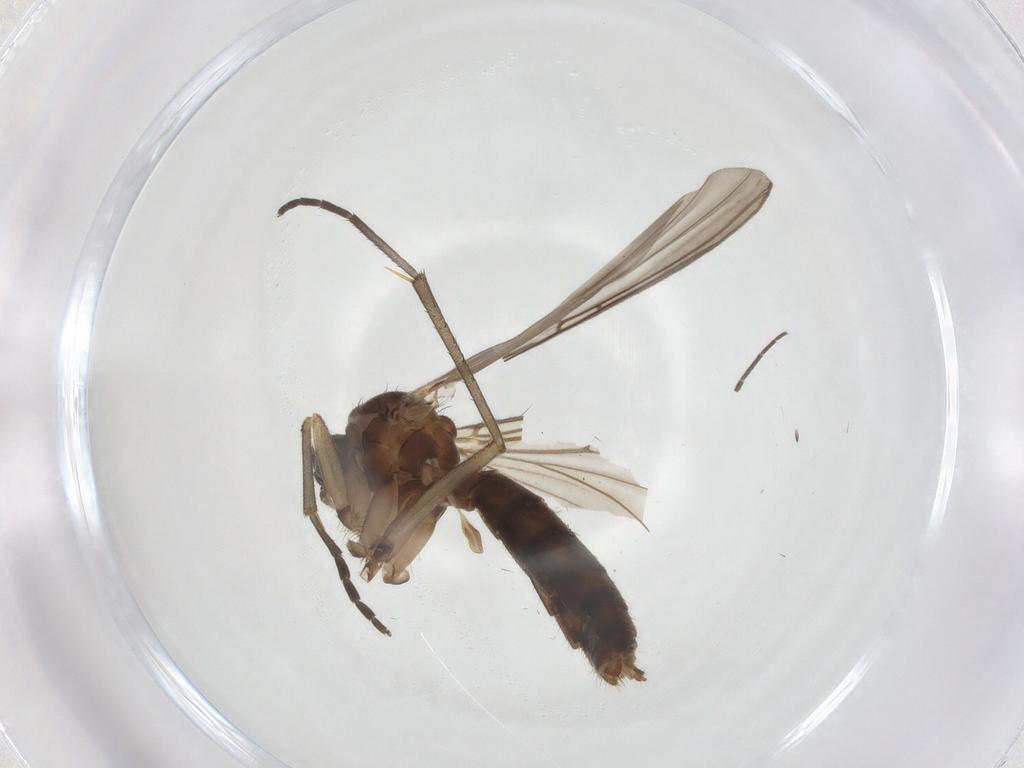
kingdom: Animalia
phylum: Arthropoda
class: Insecta
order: Diptera
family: Mycetophilidae
